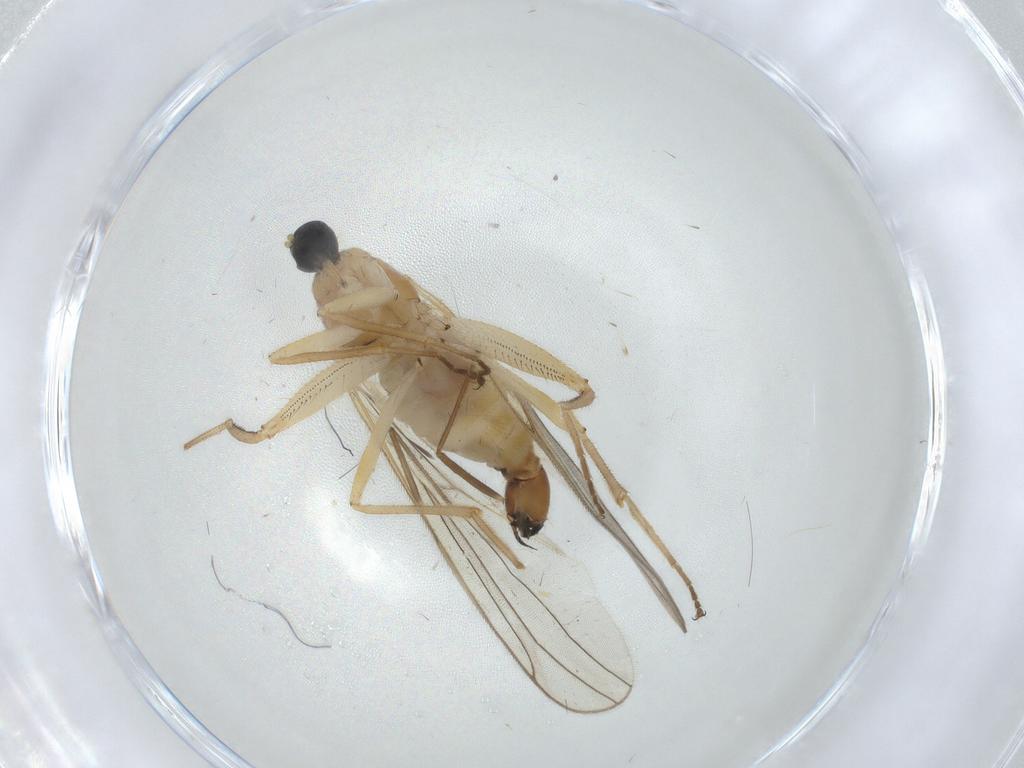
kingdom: Animalia
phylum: Arthropoda
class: Insecta
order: Diptera
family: Hybotidae
